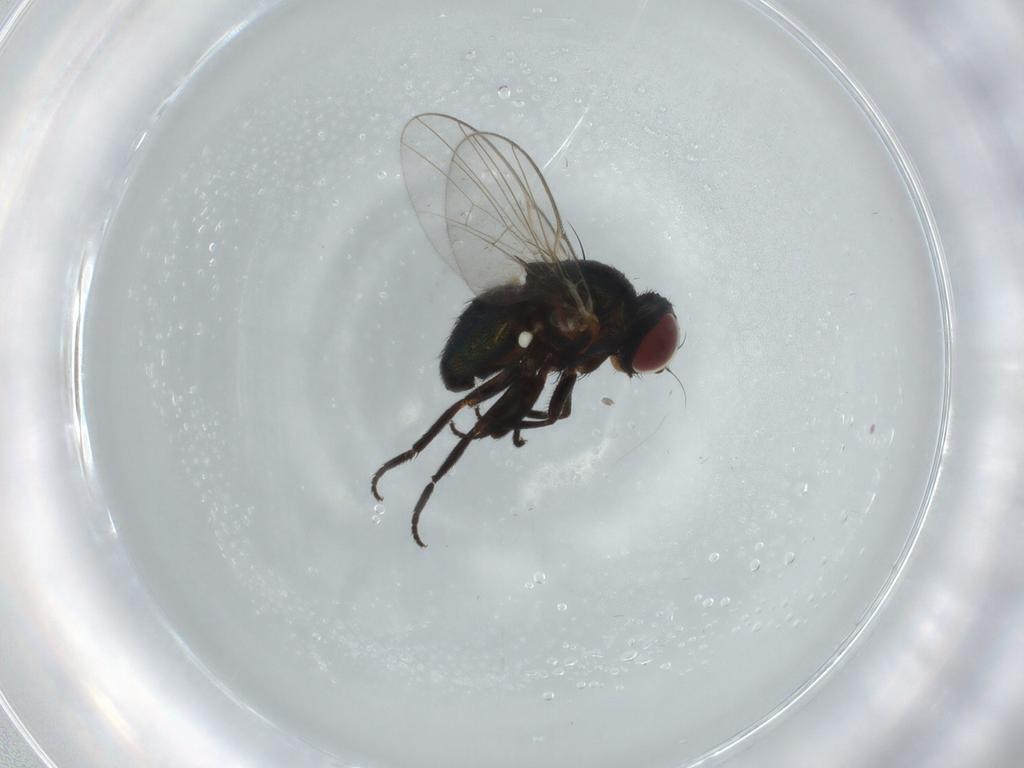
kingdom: Animalia
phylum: Arthropoda
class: Insecta
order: Diptera
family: Agromyzidae
